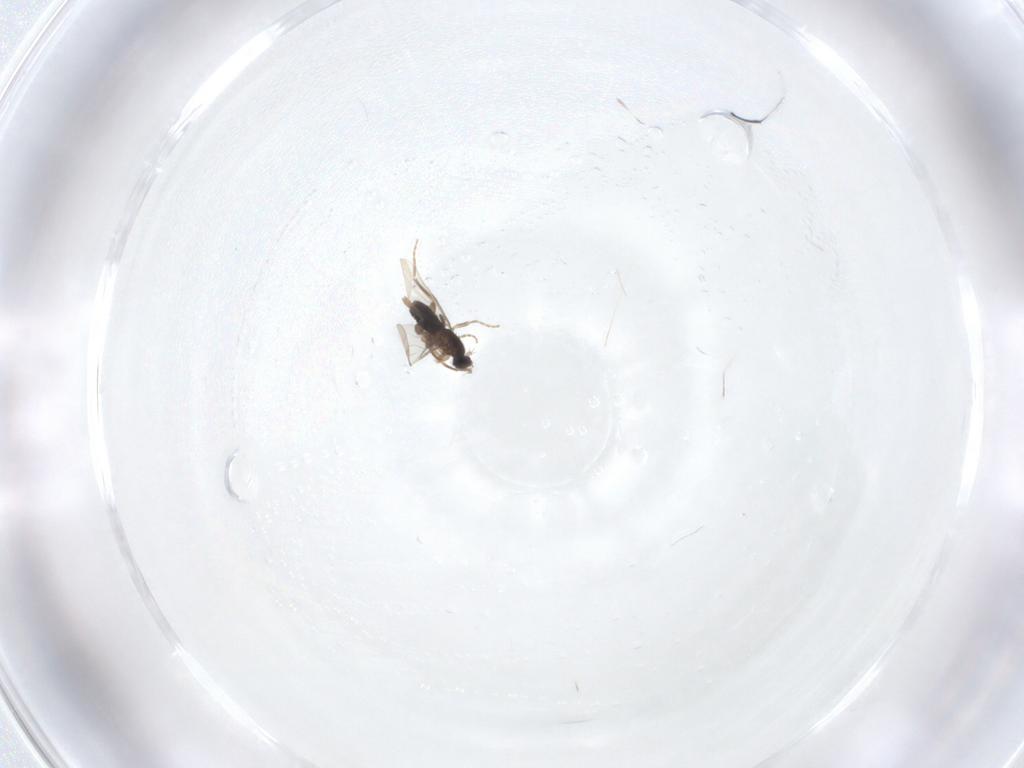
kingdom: Animalia
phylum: Arthropoda
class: Insecta
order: Diptera
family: Phoridae
